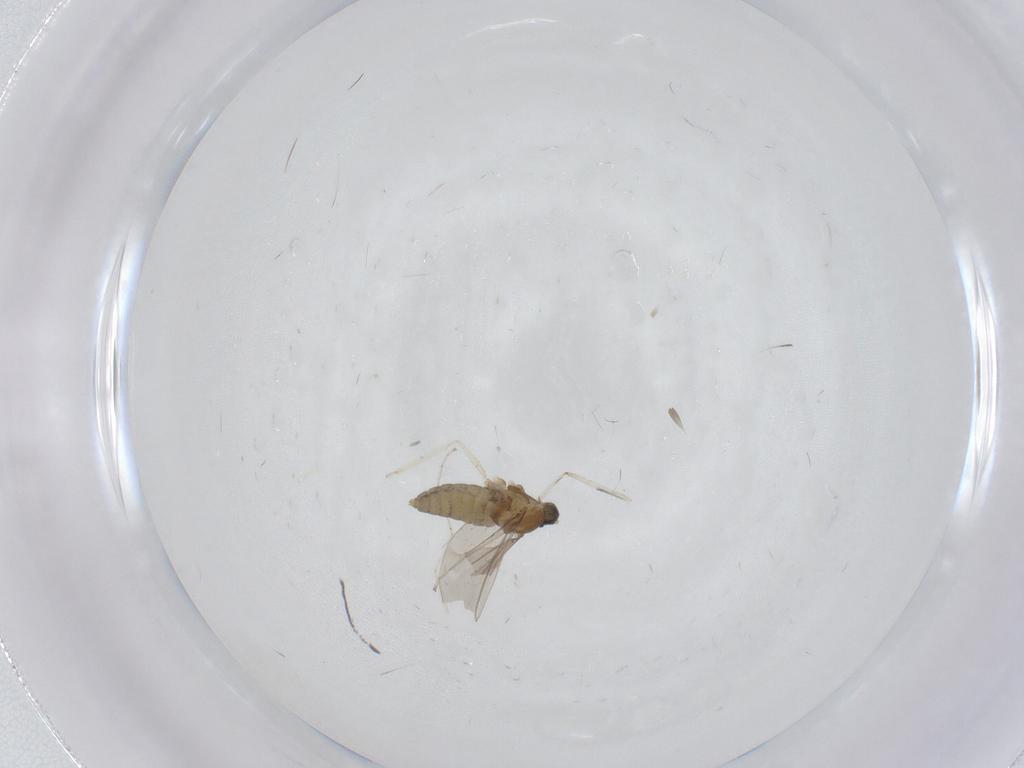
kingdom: Animalia
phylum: Arthropoda
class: Insecta
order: Diptera
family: Cecidomyiidae
